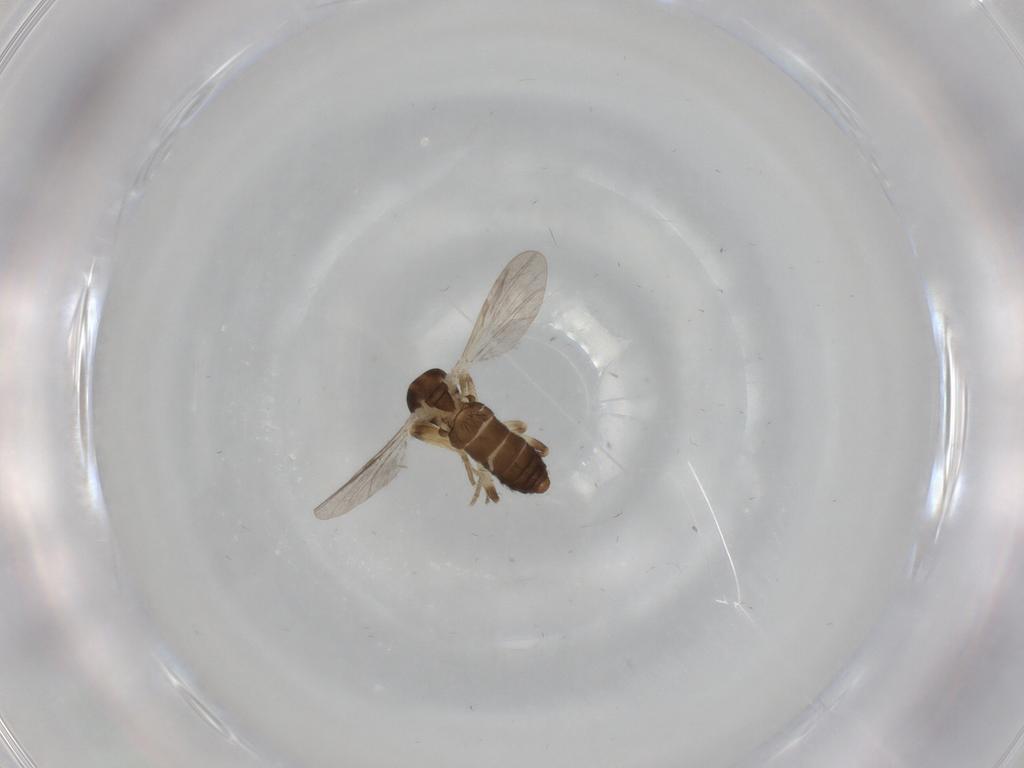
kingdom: Animalia
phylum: Arthropoda
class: Insecta
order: Diptera
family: Ceratopogonidae
